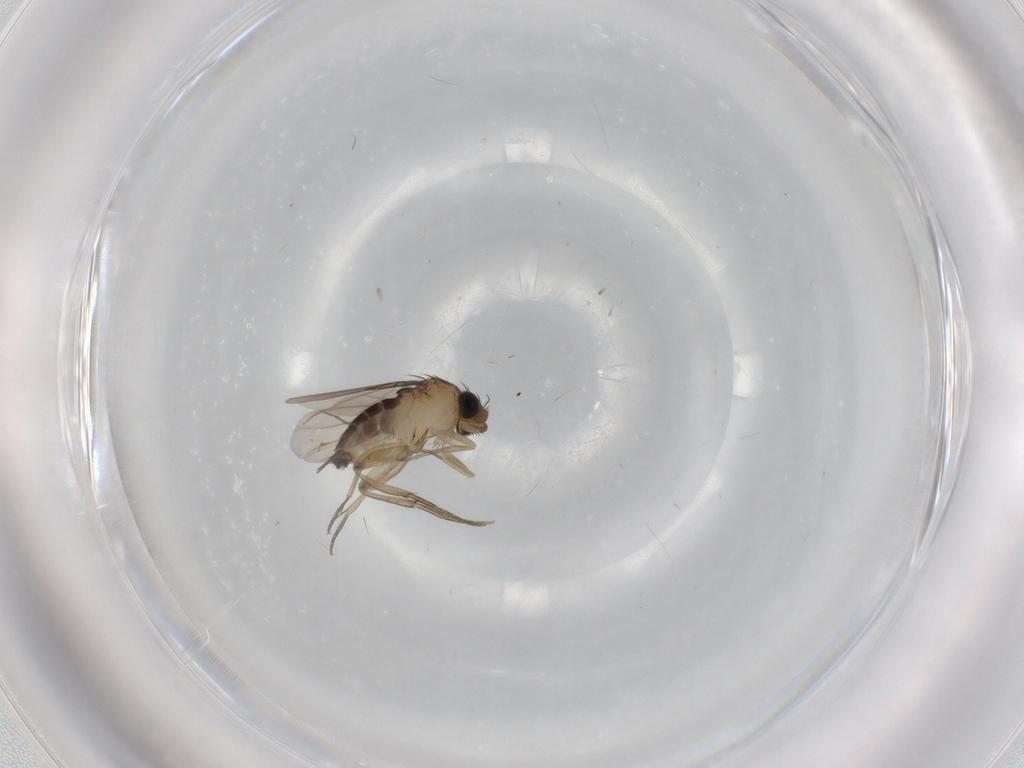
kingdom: Animalia
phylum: Arthropoda
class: Insecta
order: Diptera
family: Phoridae
